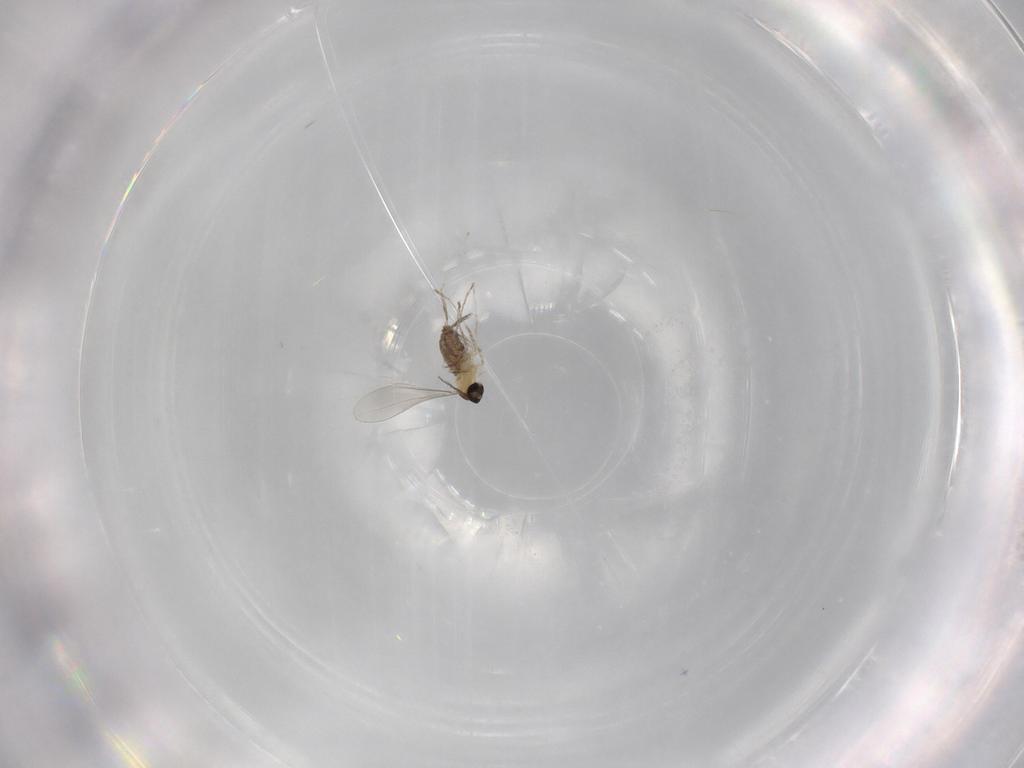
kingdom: Animalia
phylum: Arthropoda
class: Insecta
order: Diptera
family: Cecidomyiidae
